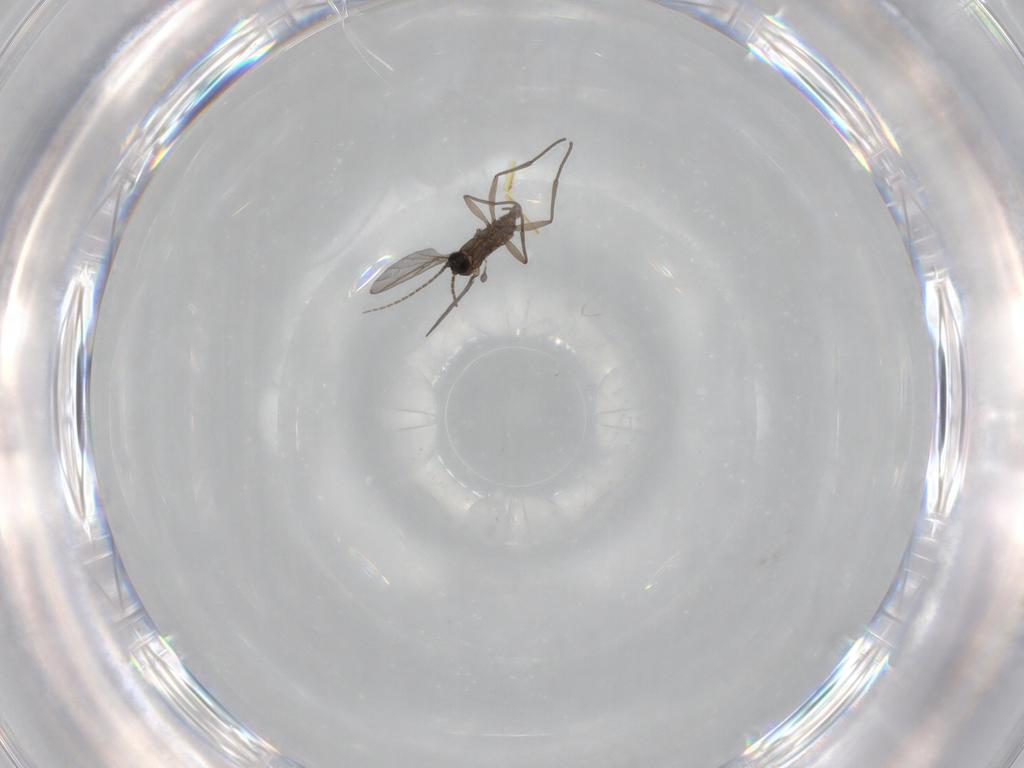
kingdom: Animalia
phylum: Arthropoda
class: Insecta
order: Diptera
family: Sciaridae
